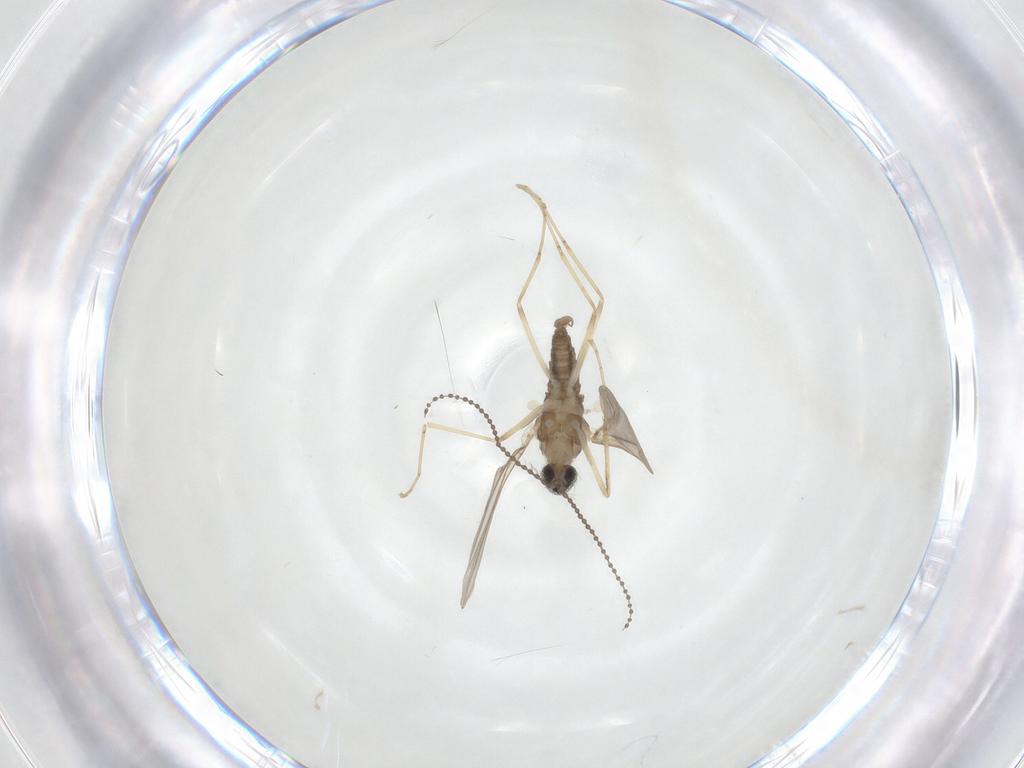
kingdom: Animalia
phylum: Arthropoda
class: Insecta
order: Diptera
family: Cecidomyiidae
